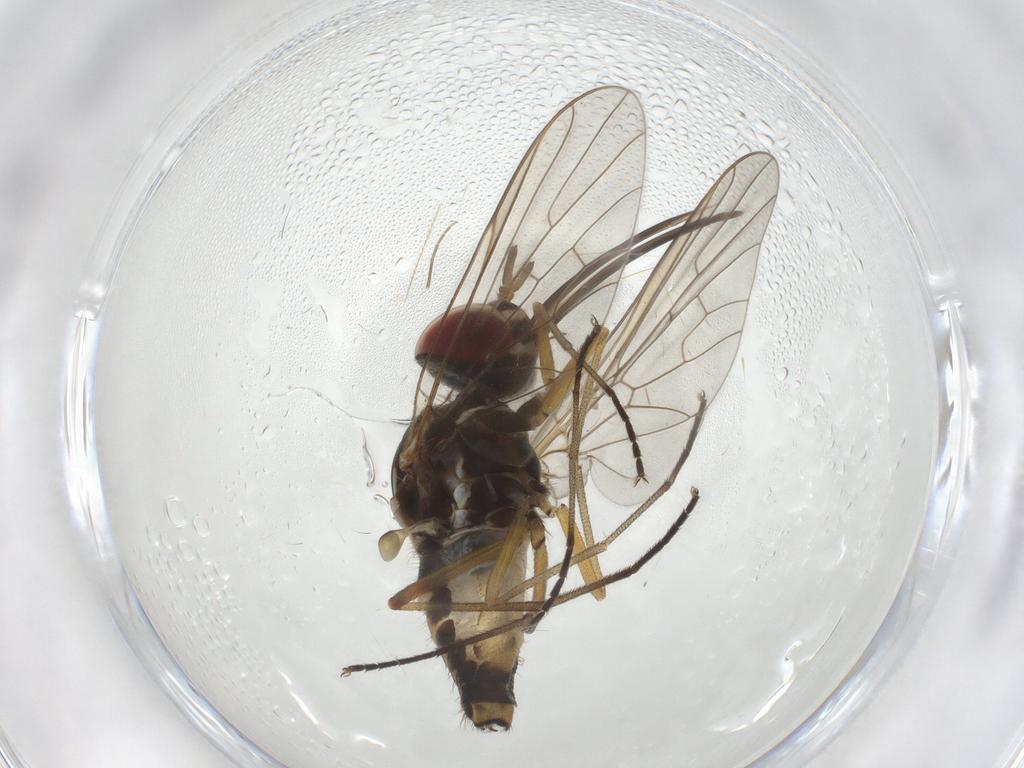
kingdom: Animalia
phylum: Arthropoda
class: Insecta
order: Diptera
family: Bombyliidae
